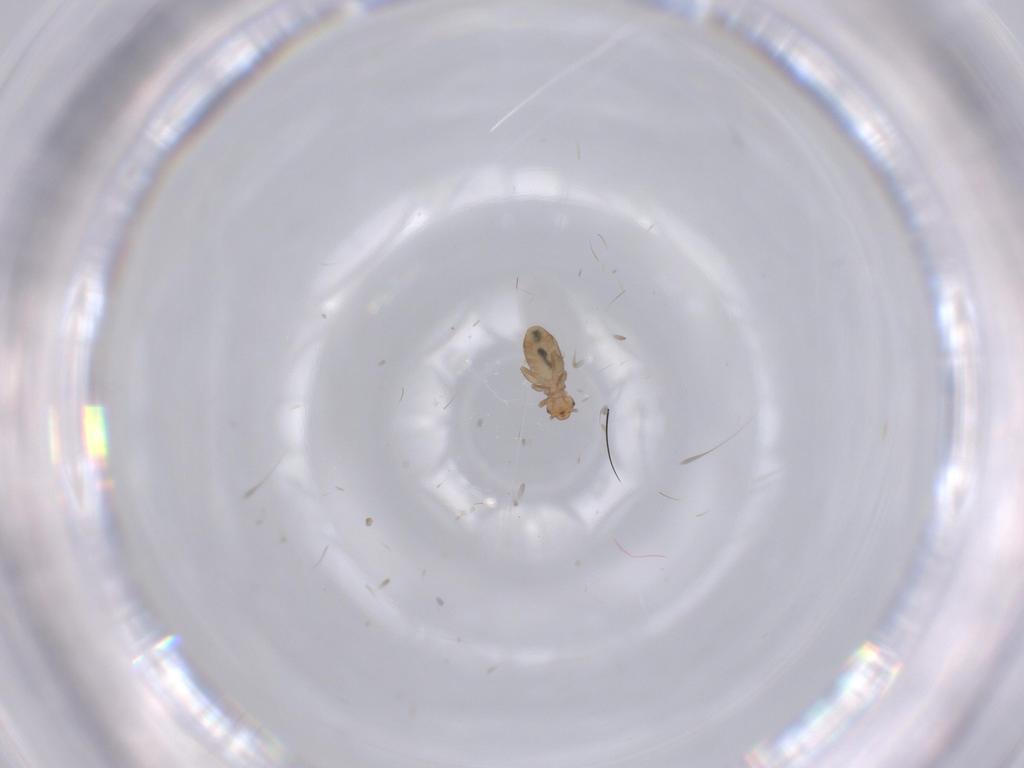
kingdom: Animalia
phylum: Arthropoda
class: Insecta
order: Psocodea
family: Liposcelididae
